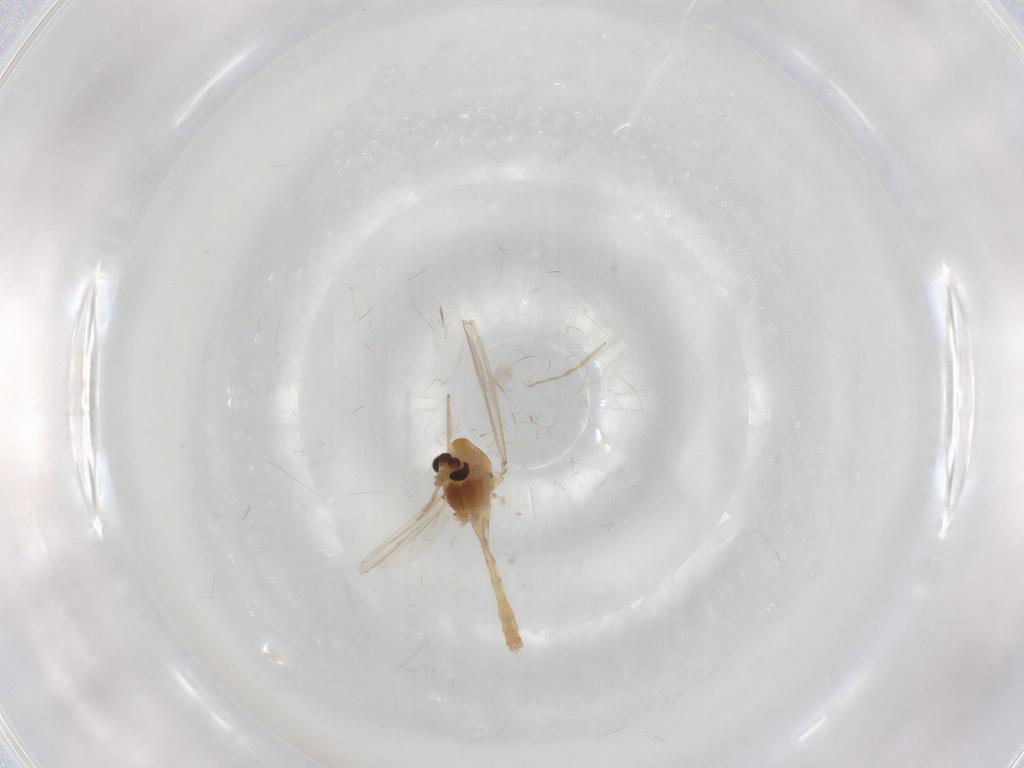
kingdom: Animalia
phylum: Arthropoda
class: Insecta
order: Diptera
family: Chironomidae
